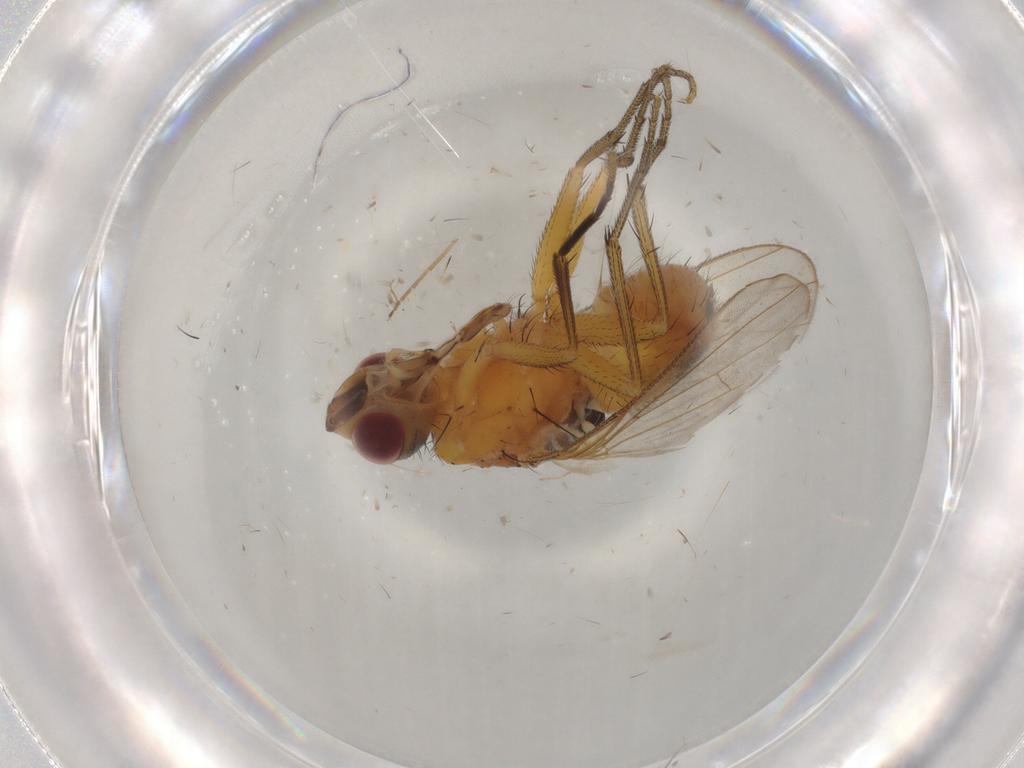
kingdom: Animalia
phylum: Arthropoda
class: Insecta
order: Diptera
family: Muscidae
